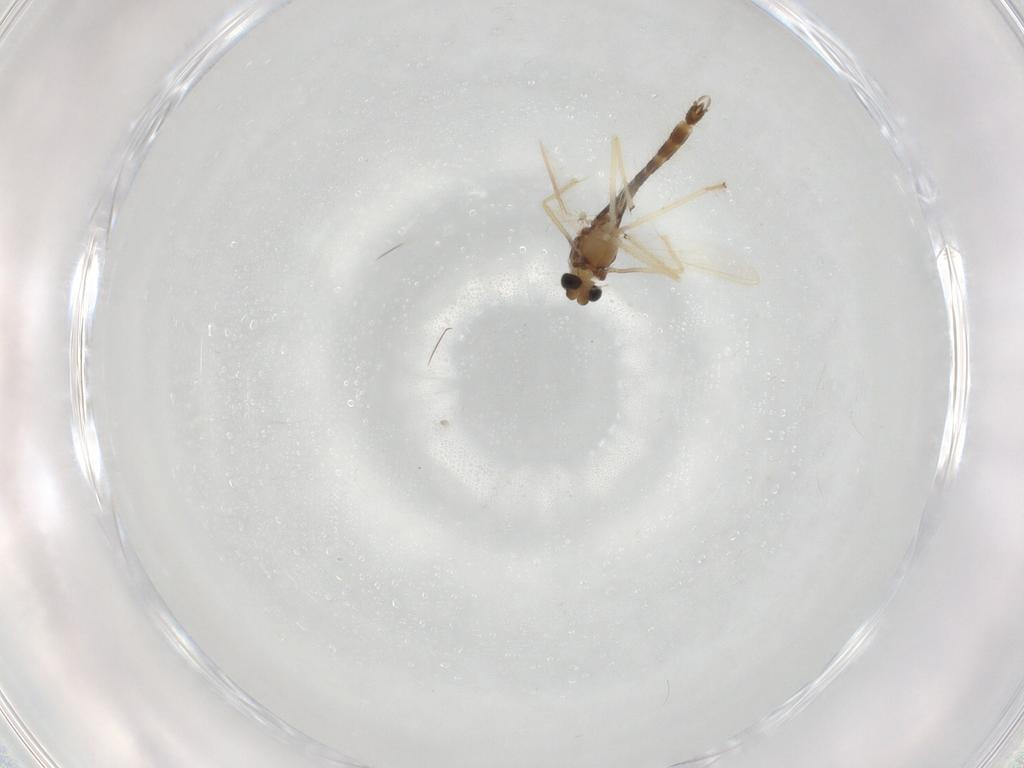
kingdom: Animalia
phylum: Arthropoda
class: Insecta
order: Diptera
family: Chironomidae
